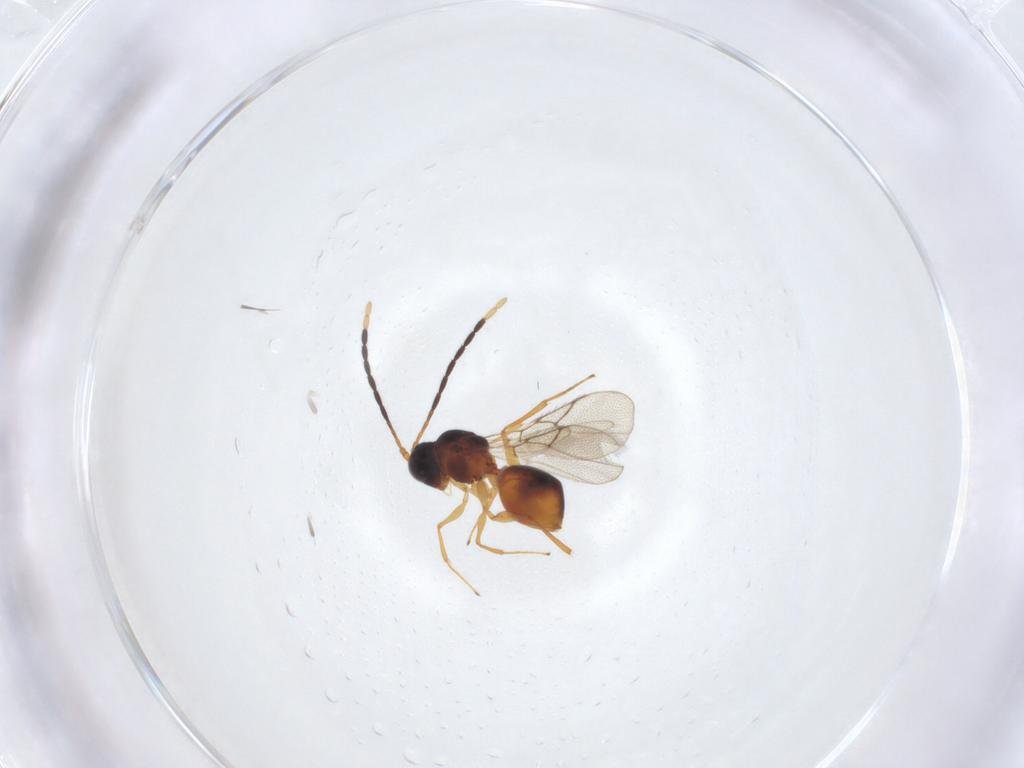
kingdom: Animalia
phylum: Arthropoda
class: Insecta
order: Hymenoptera
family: Figitidae
